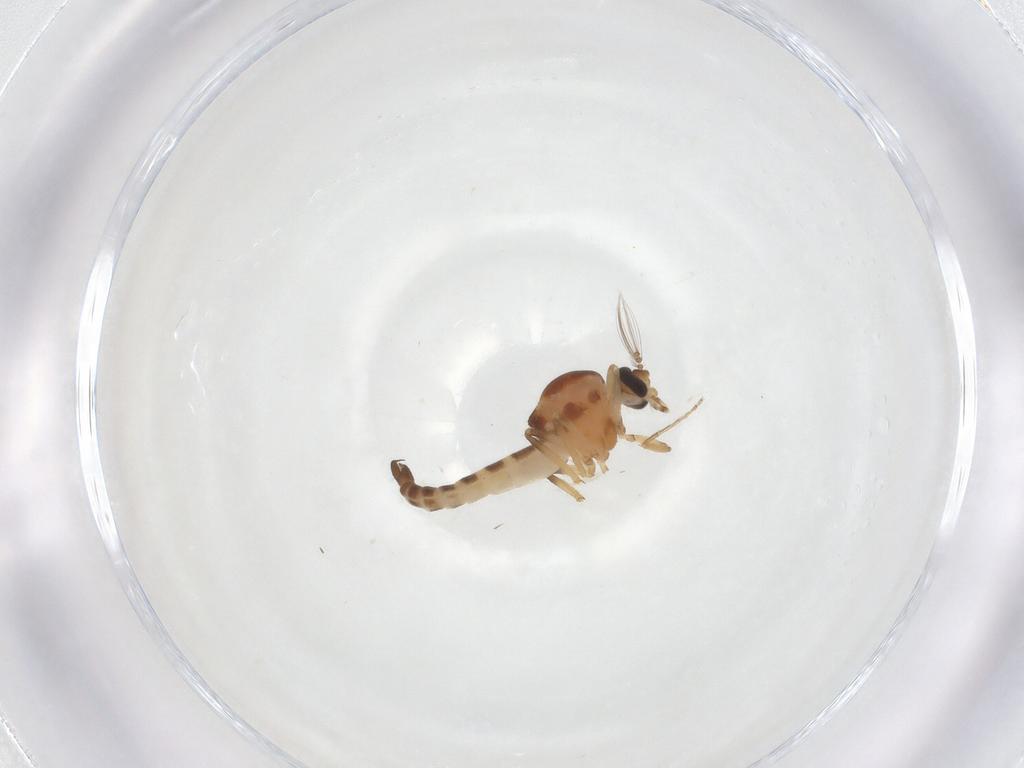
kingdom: Animalia
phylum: Arthropoda
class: Insecta
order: Diptera
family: Ceratopogonidae
